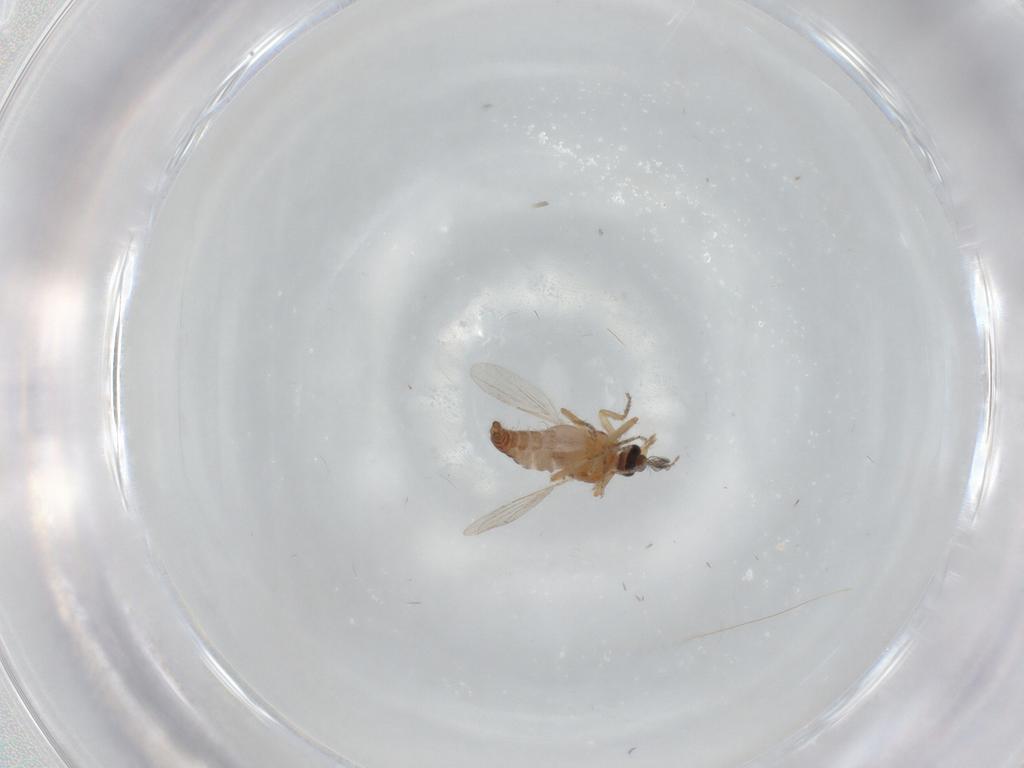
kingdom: Animalia
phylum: Arthropoda
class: Insecta
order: Diptera
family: Ceratopogonidae
